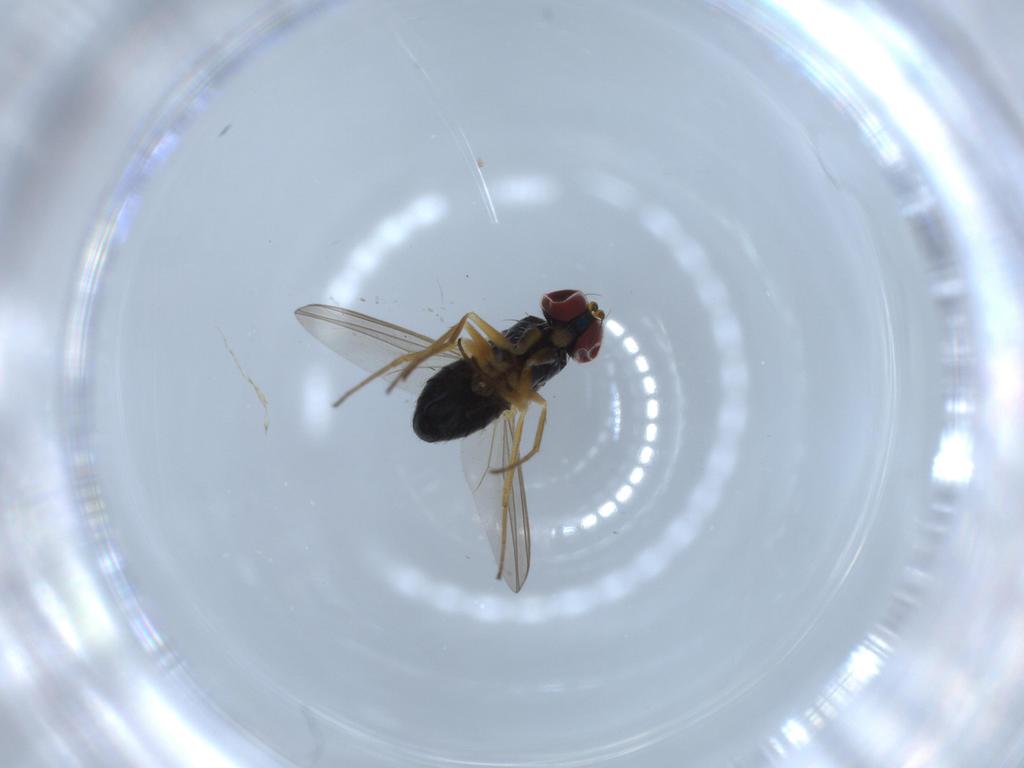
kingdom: Animalia
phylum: Arthropoda
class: Insecta
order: Diptera
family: Dolichopodidae
